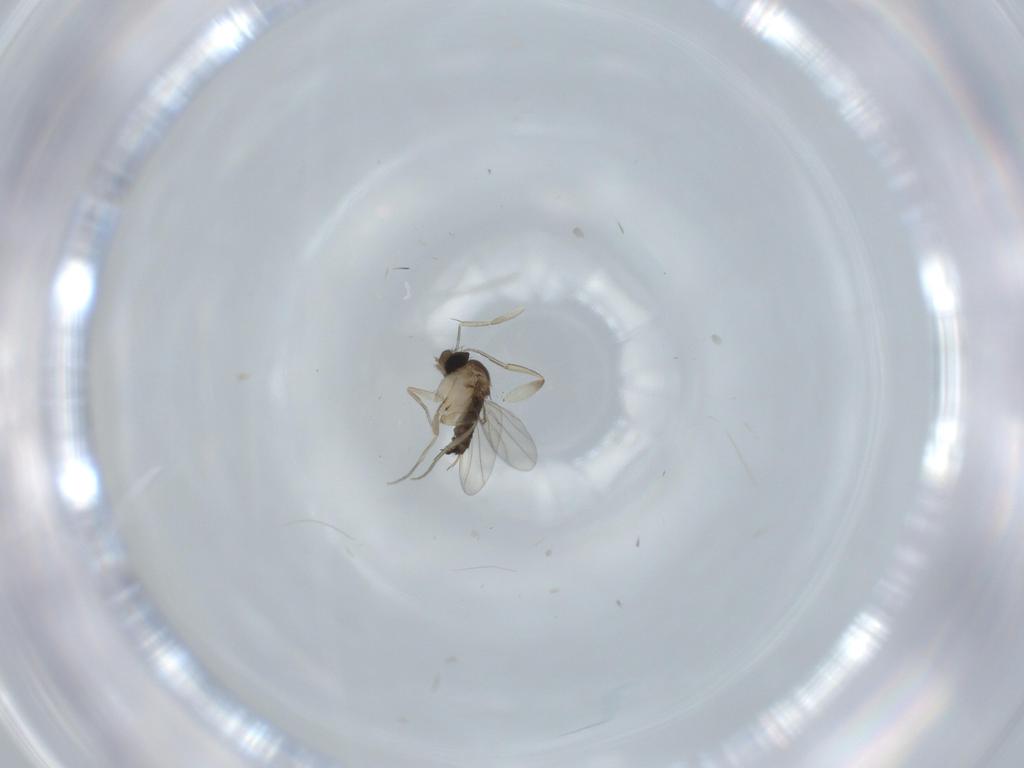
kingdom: Animalia
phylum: Arthropoda
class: Insecta
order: Diptera
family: Phoridae
